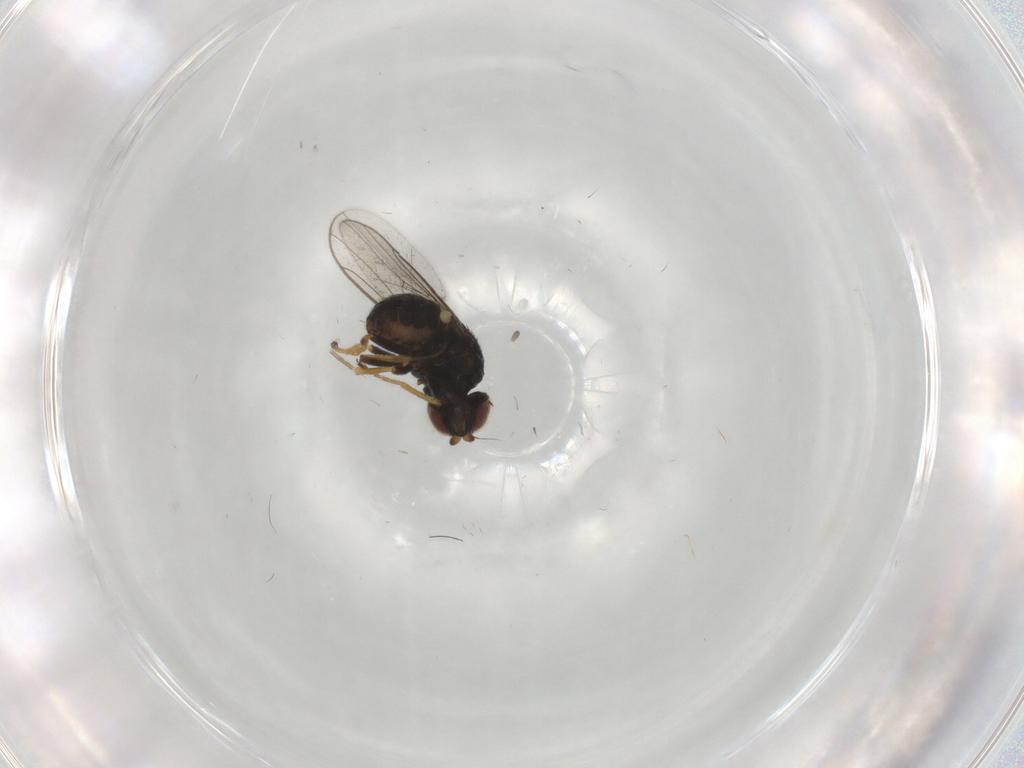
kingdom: Animalia
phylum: Arthropoda
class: Insecta
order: Diptera
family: Chloropidae
